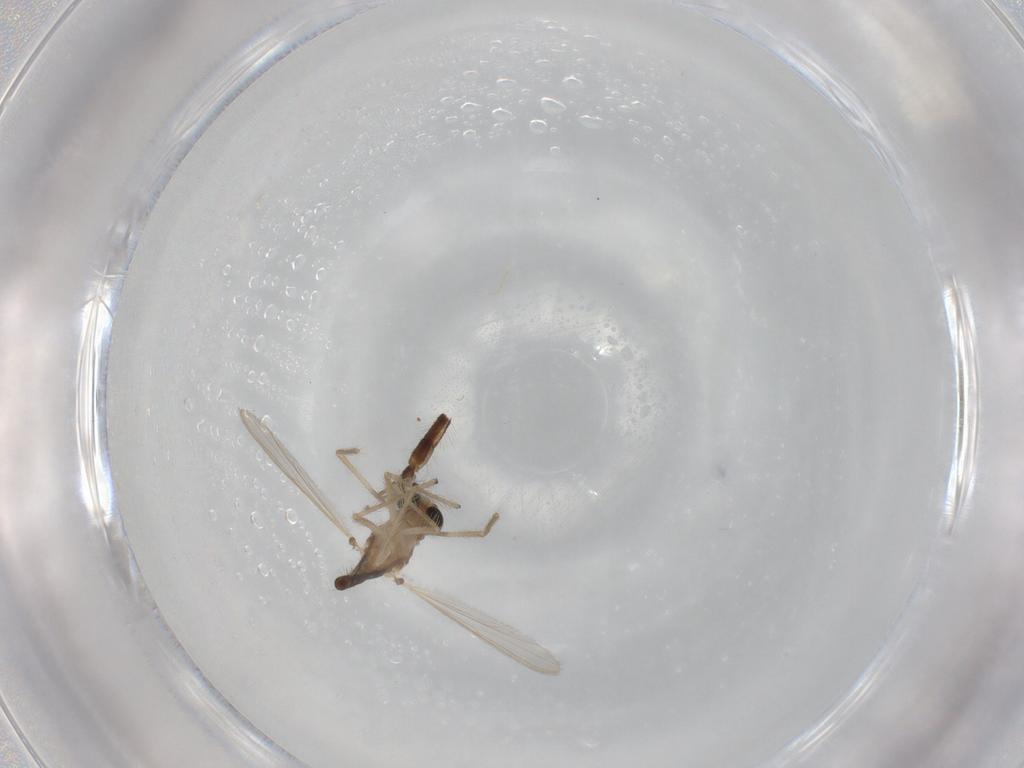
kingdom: Animalia
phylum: Arthropoda
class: Insecta
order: Diptera
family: Chironomidae
